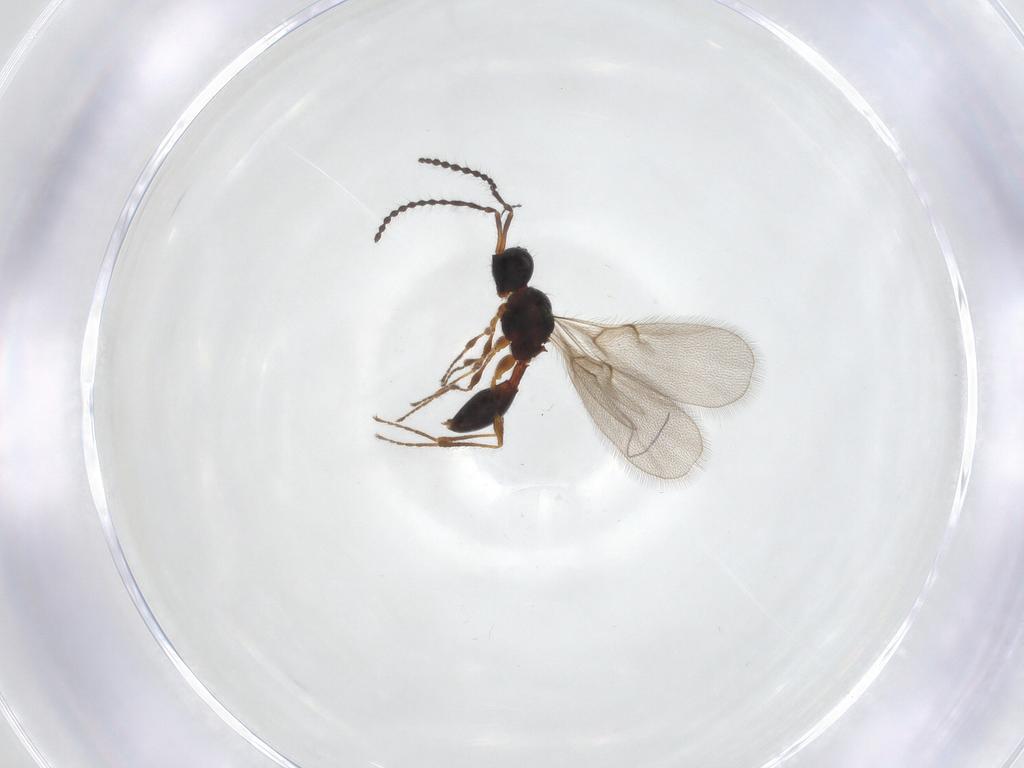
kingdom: Animalia
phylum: Arthropoda
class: Insecta
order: Hymenoptera
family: Diapriidae
